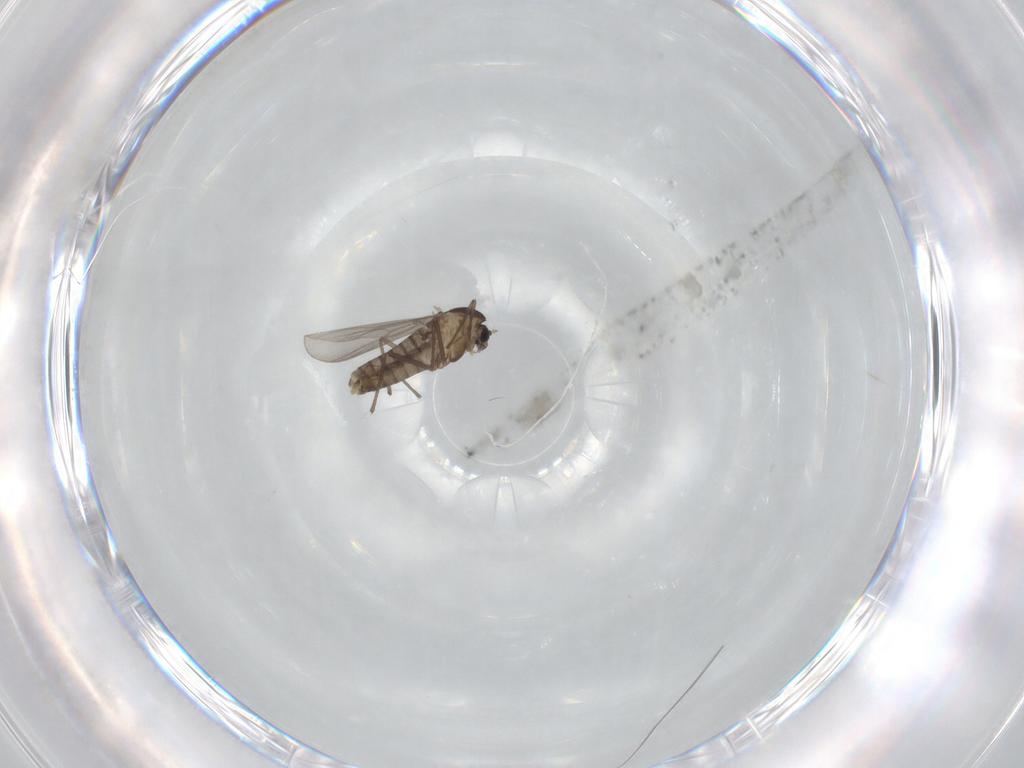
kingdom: Animalia
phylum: Arthropoda
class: Insecta
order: Diptera
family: Chironomidae
